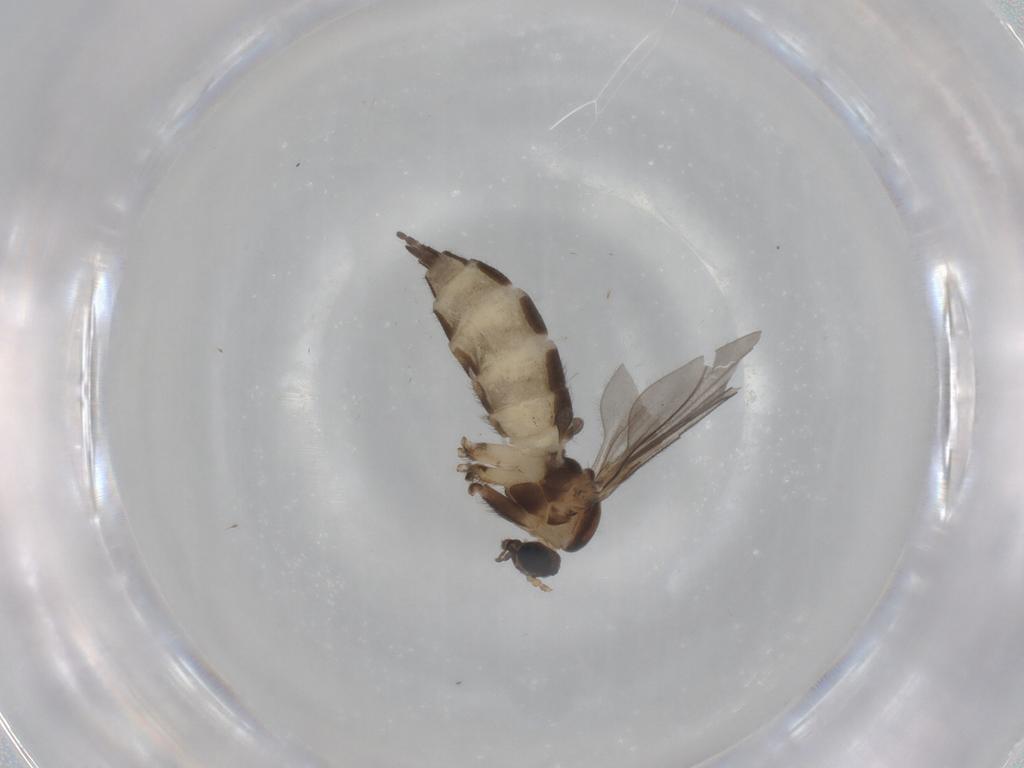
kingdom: Animalia
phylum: Arthropoda
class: Insecta
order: Diptera
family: Sciaridae
